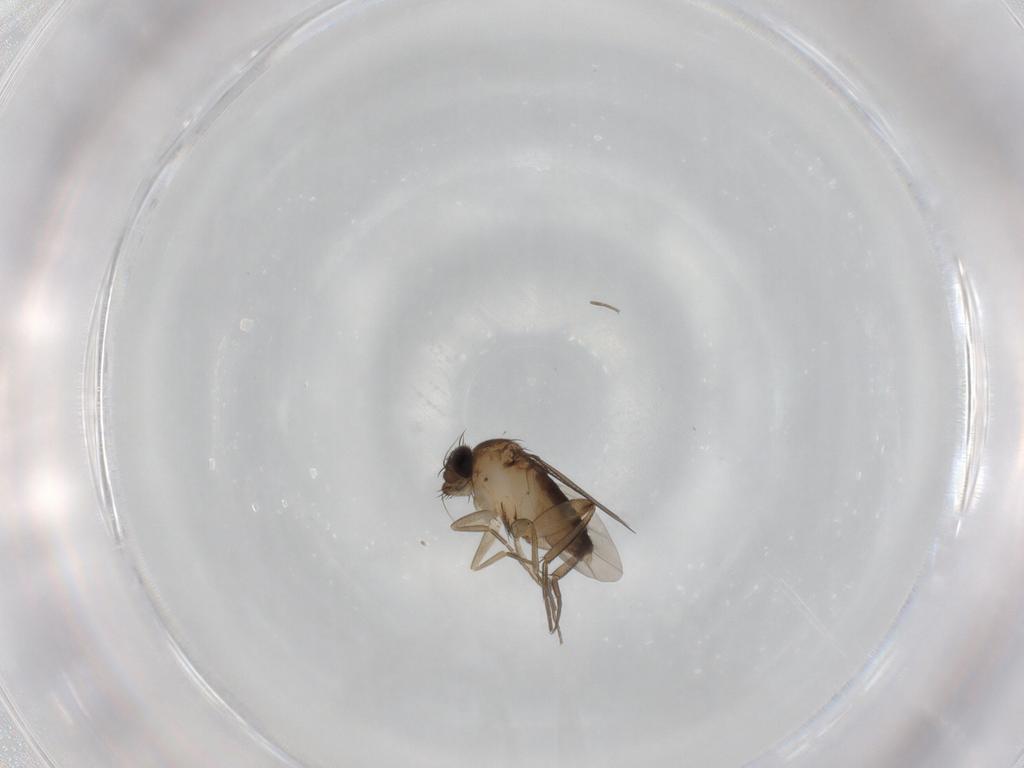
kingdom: Animalia
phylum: Arthropoda
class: Insecta
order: Diptera
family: Phoridae
